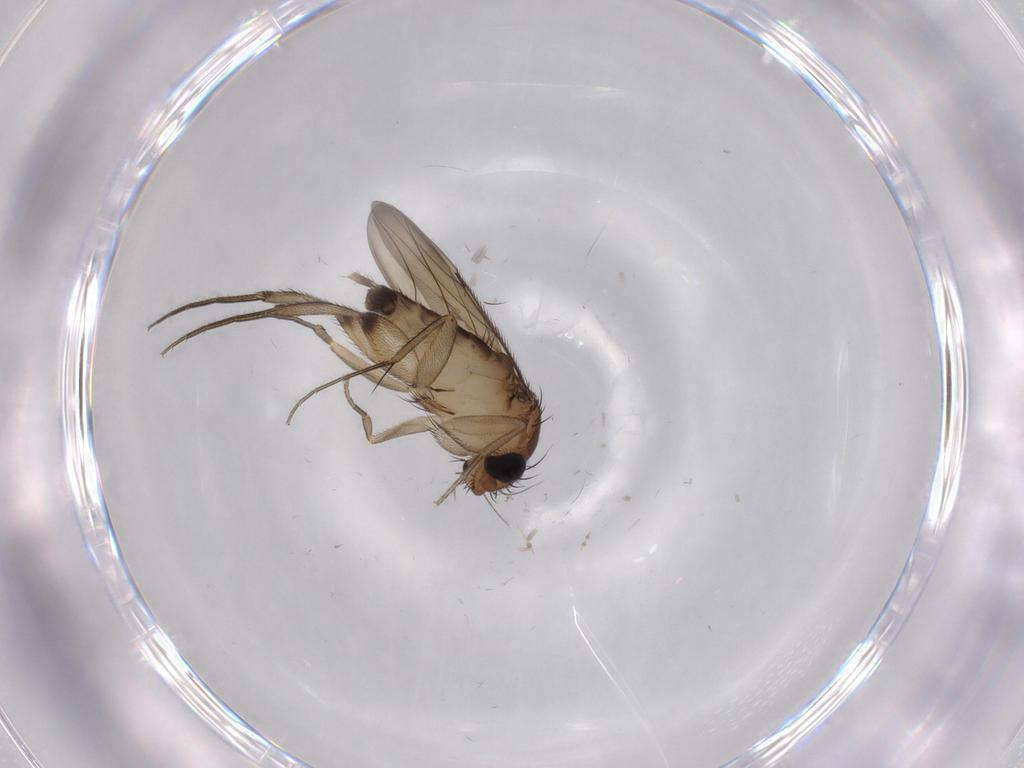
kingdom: Animalia
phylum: Arthropoda
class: Insecta
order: Diptera
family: Phoridae
